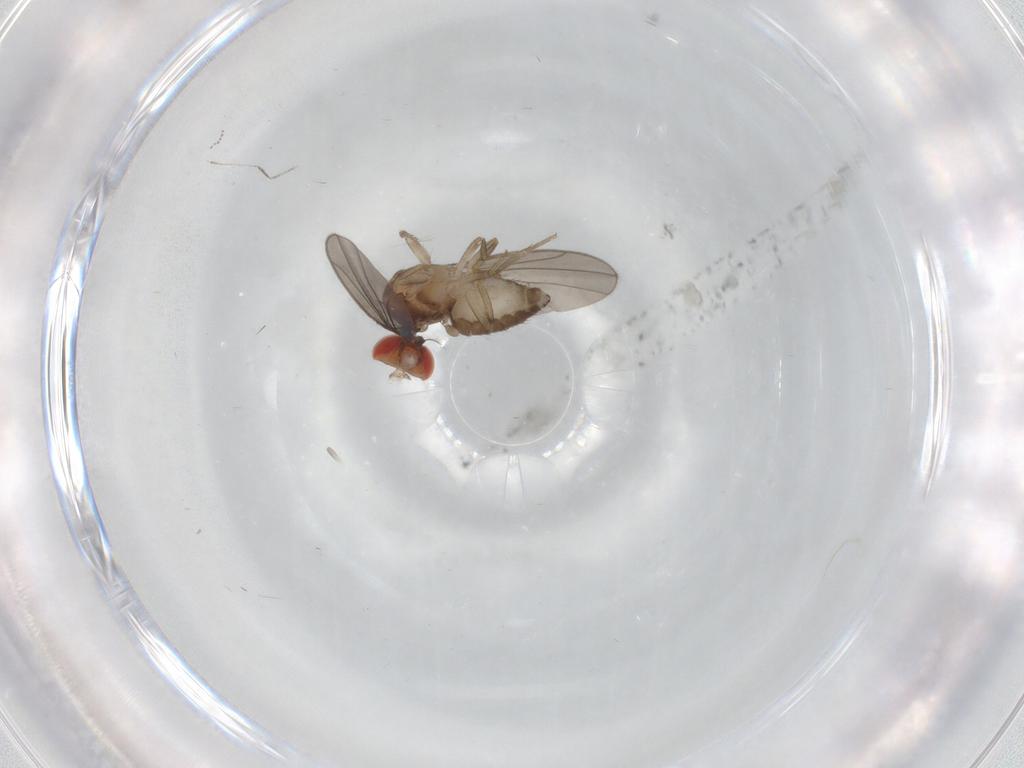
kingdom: Animalia
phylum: Arthropoda
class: Insecta
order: Diptera
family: Drosophilidae
